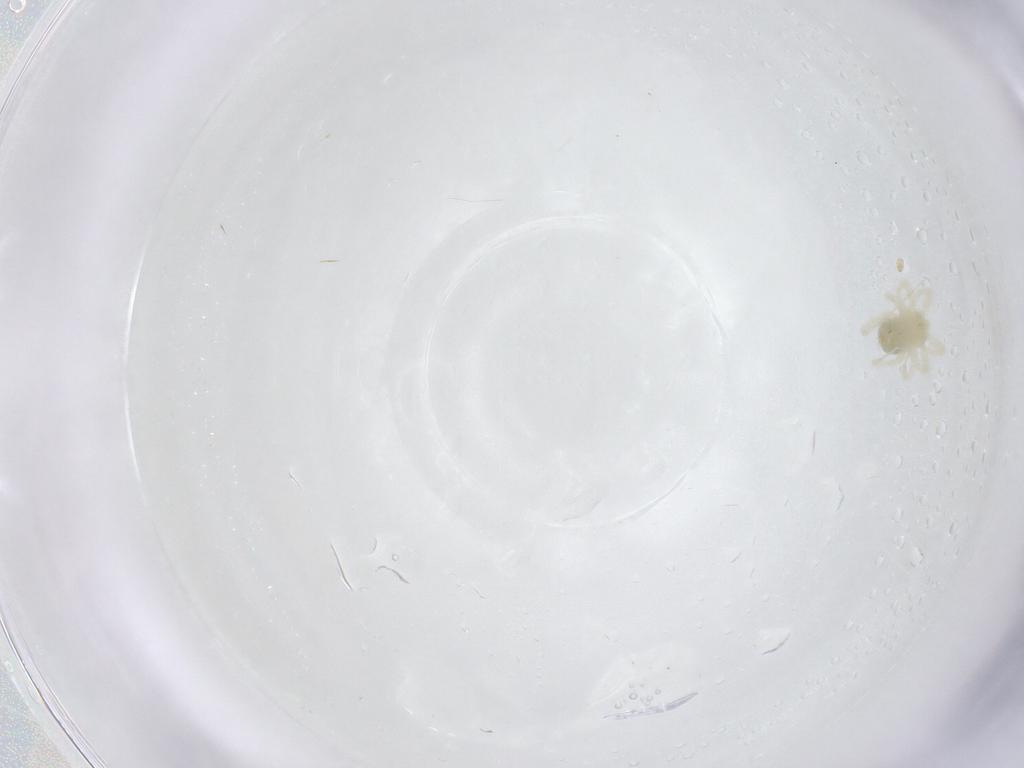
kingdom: Animalia
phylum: Arthropoda
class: Arachnida
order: Trombidiformes
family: Anystidae
